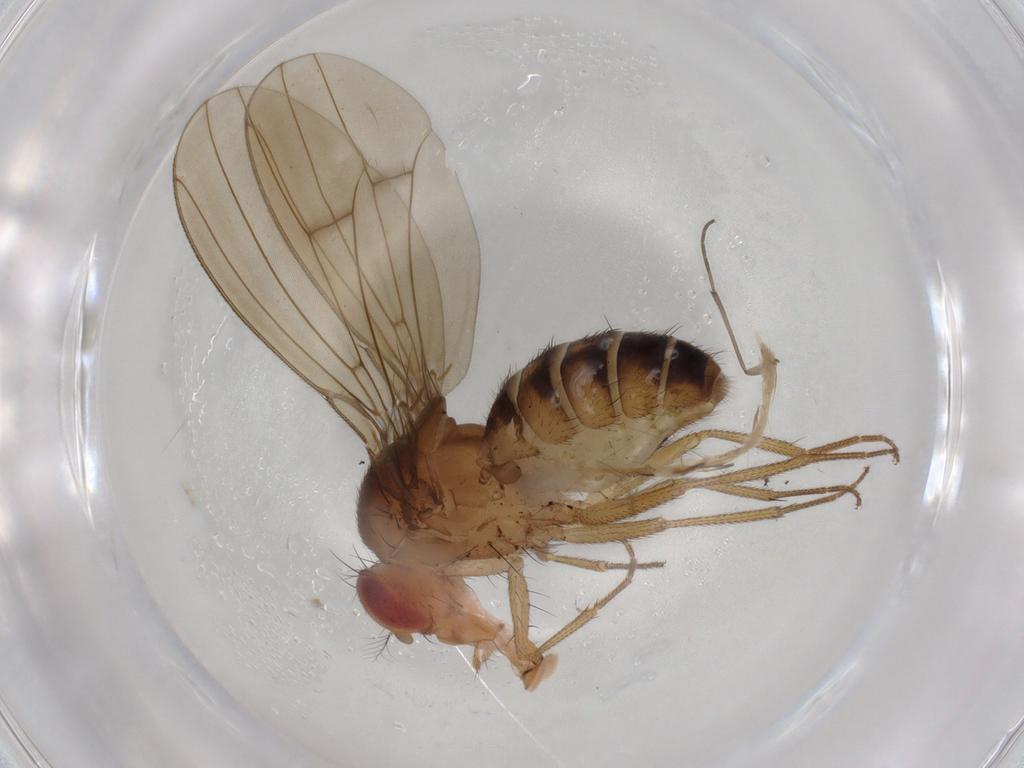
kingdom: Animalia
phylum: Arthropoda
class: Insecta
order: Diptera
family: Drosophilidae
